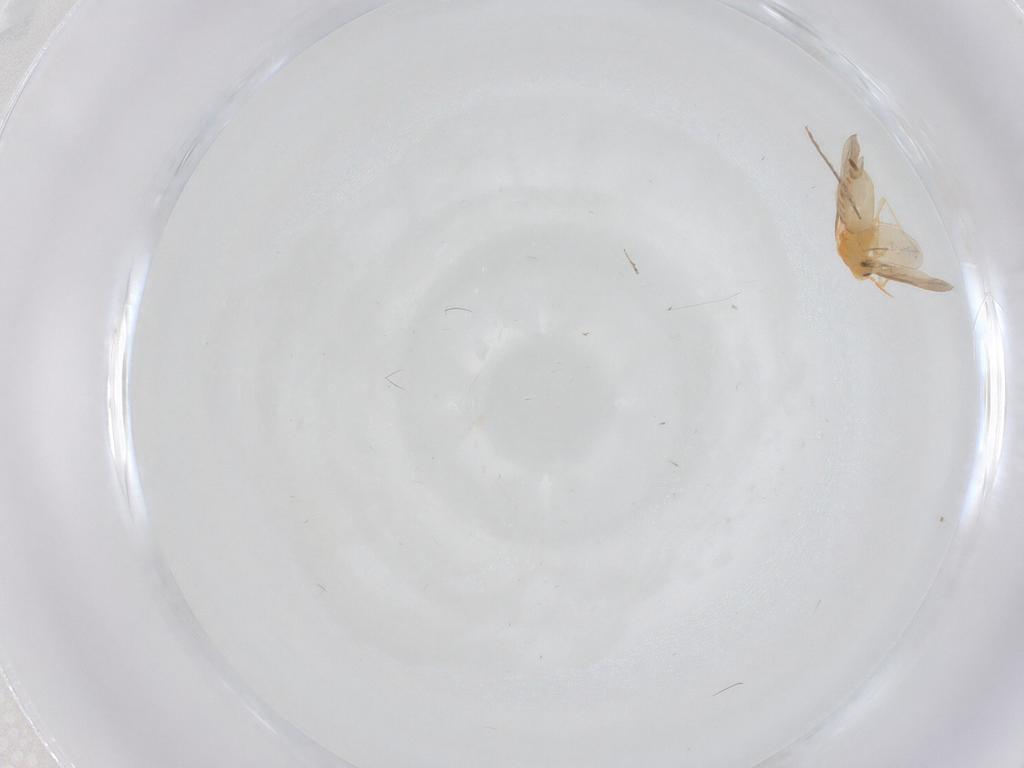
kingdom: Animalia
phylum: Arthropoda
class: Insecta
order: Hemiptera
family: Aleyrodidae
